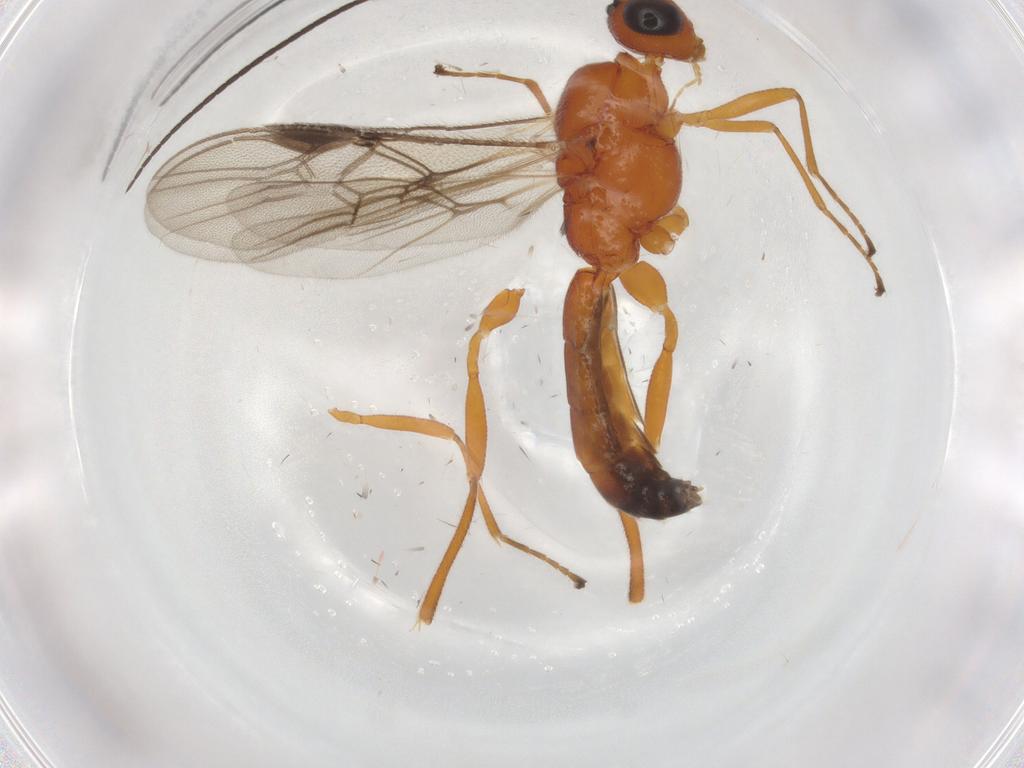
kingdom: Animalia
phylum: Arthropoda
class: Insecta
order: Hymenoptera
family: Braconidae
